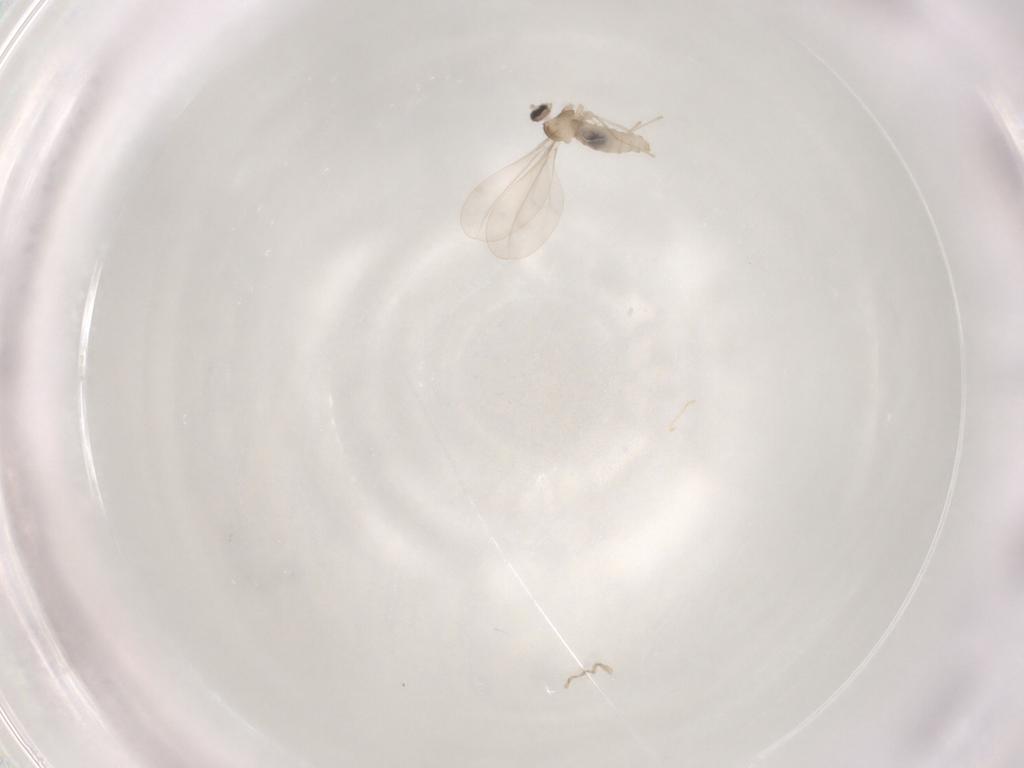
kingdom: Animalia
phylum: Arthropoda
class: Insecta
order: Diptera
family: Cecidomyiidae
